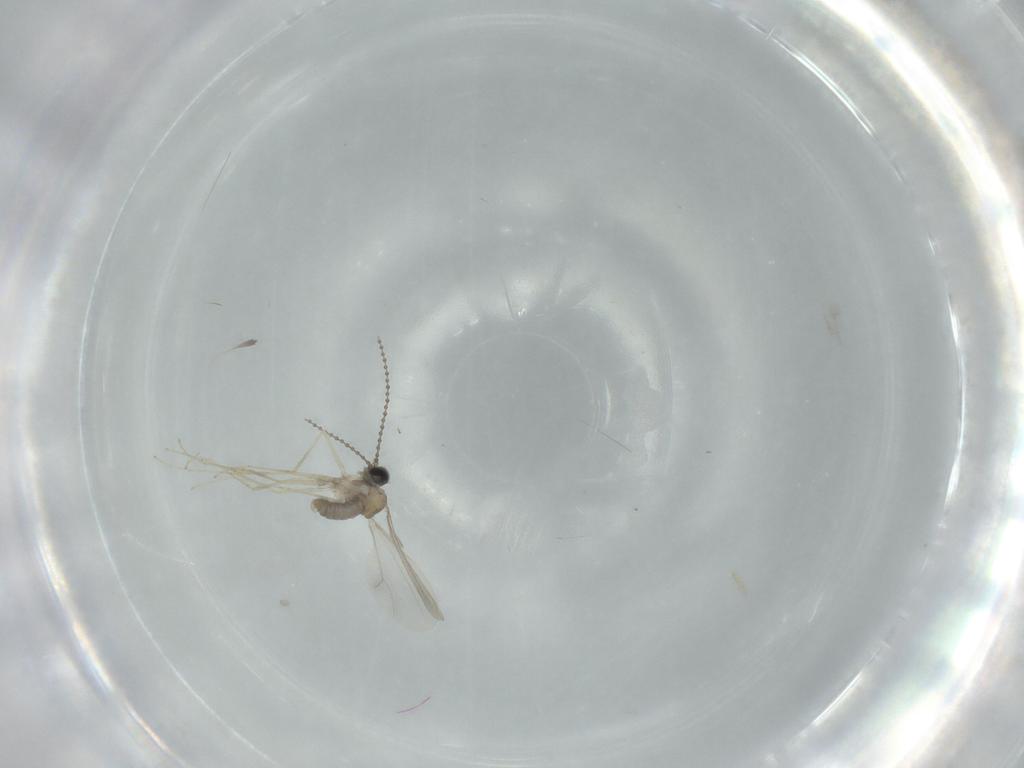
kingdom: Animalia
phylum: Arthropoda
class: Insecta
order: Diptera
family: Cecidomyiidae
